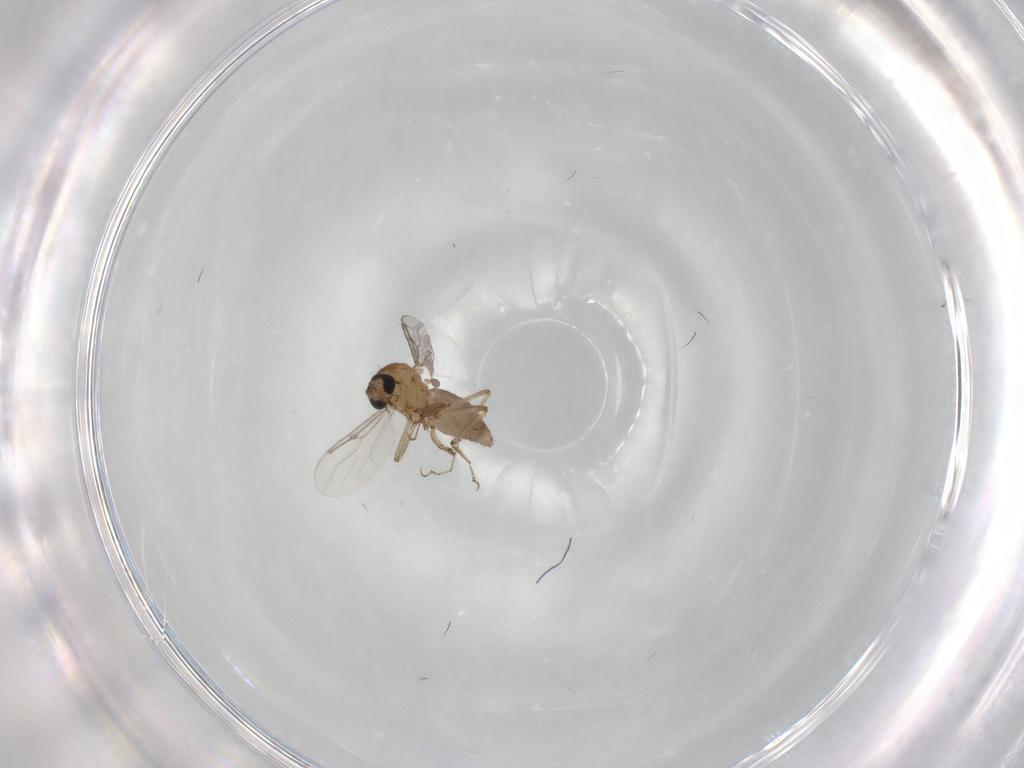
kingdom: Animalia
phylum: Arthropoda
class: Insecta
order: Diptera
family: Ceratopogonidae
